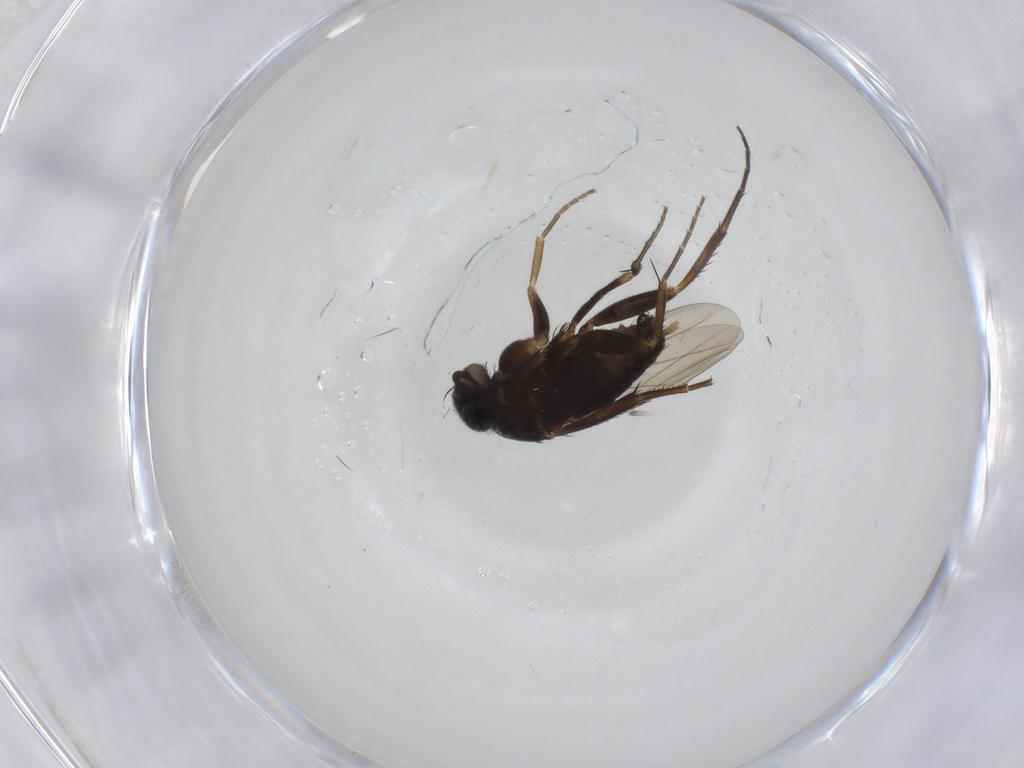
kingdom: Animalia
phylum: Arthropoda
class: Insecta
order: Diptera
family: Phoridae
